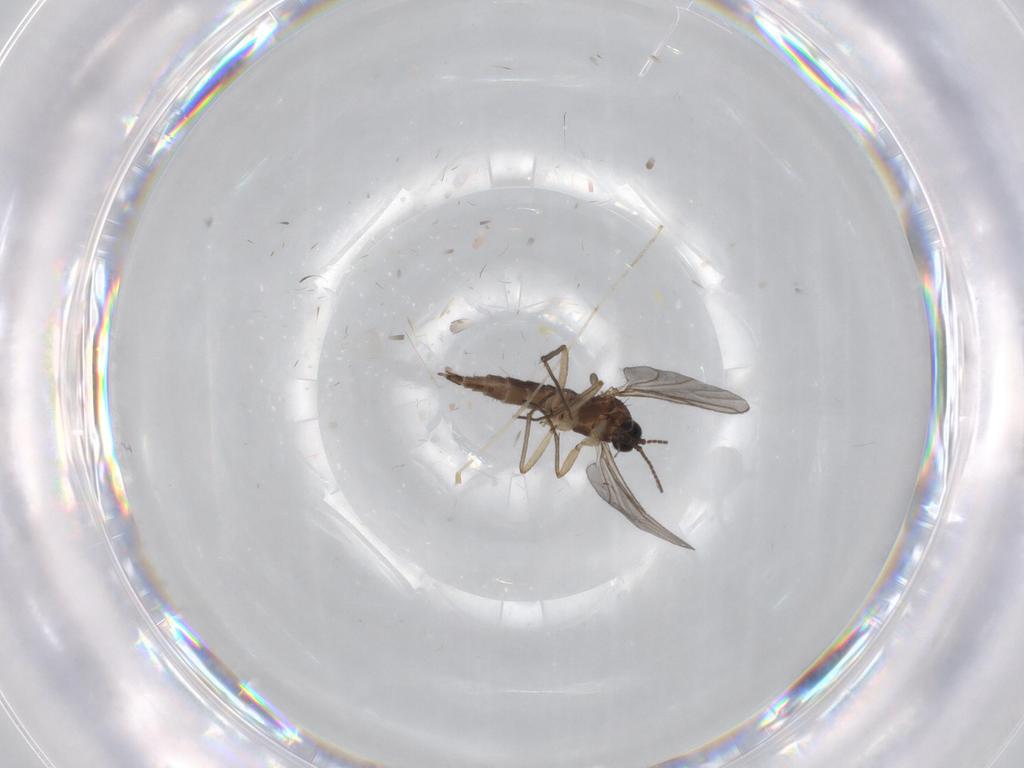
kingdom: Animalia
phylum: Arthropoda
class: Insecta
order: Diptera
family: Sciaridae
